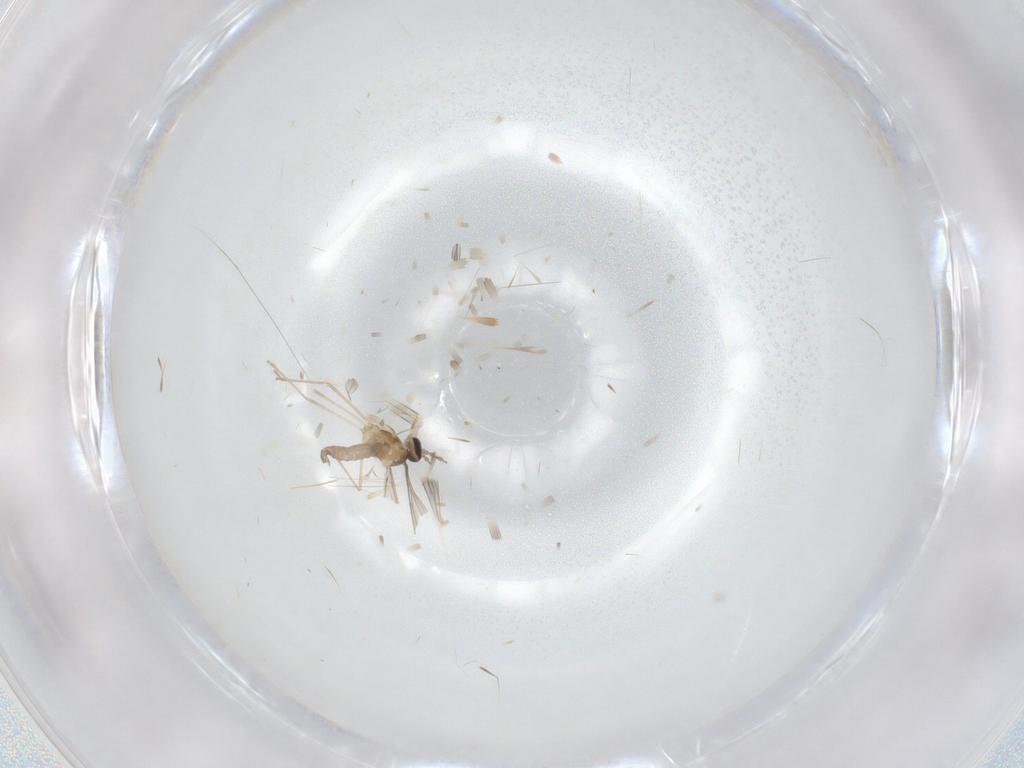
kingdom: Animalia
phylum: Arthropoda
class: Insecta
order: Diptera
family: Cecidomyiidae
